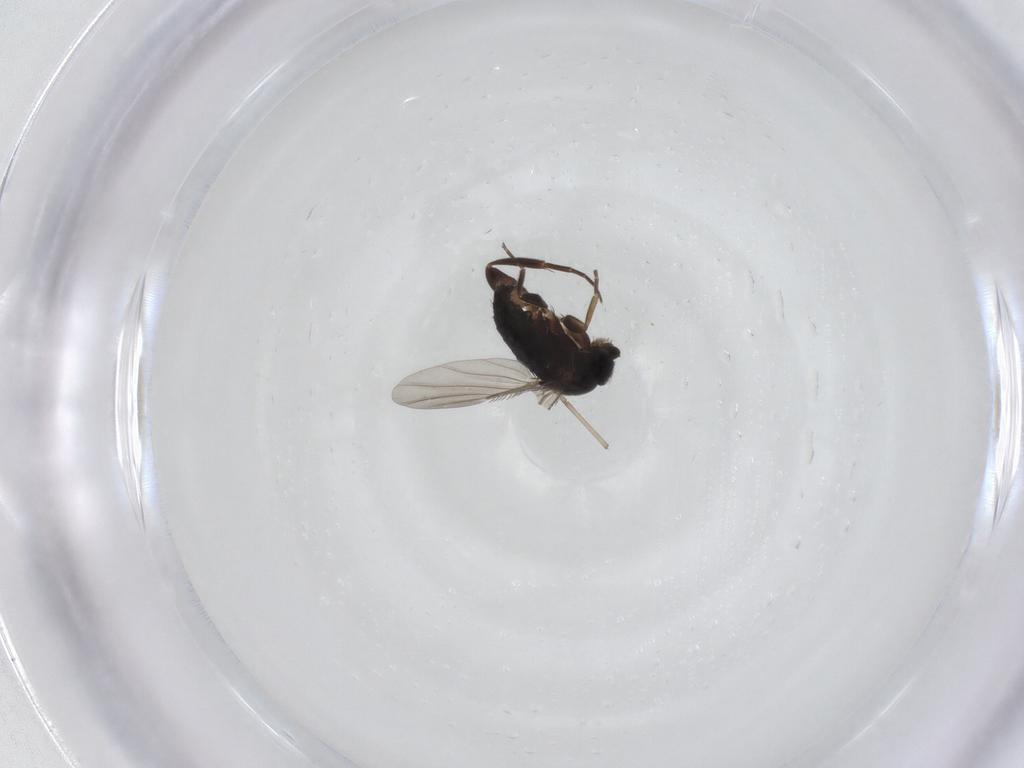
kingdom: Animalia
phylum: Arthropoda
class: Insecta
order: Diptera
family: Phoridae
